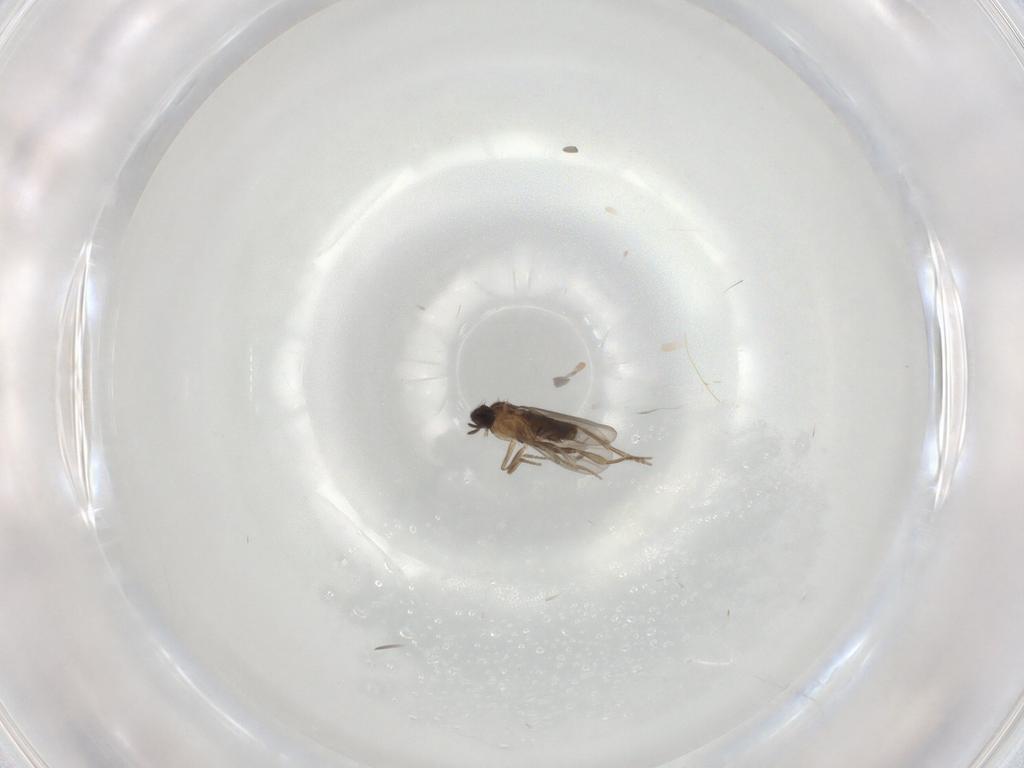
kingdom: Animalia
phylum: Arthropoda
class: Insecta
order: Diptera
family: Chironomidae
